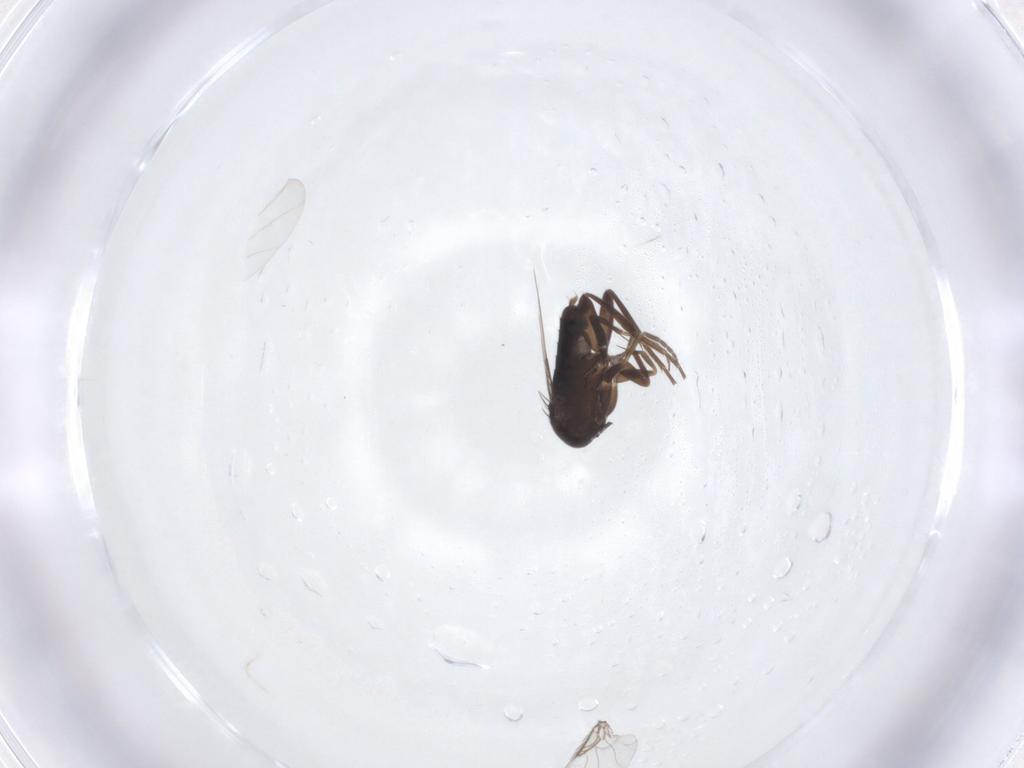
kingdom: Animalia
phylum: Arthropoda
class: Insecta
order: Diptera
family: Phoridae
